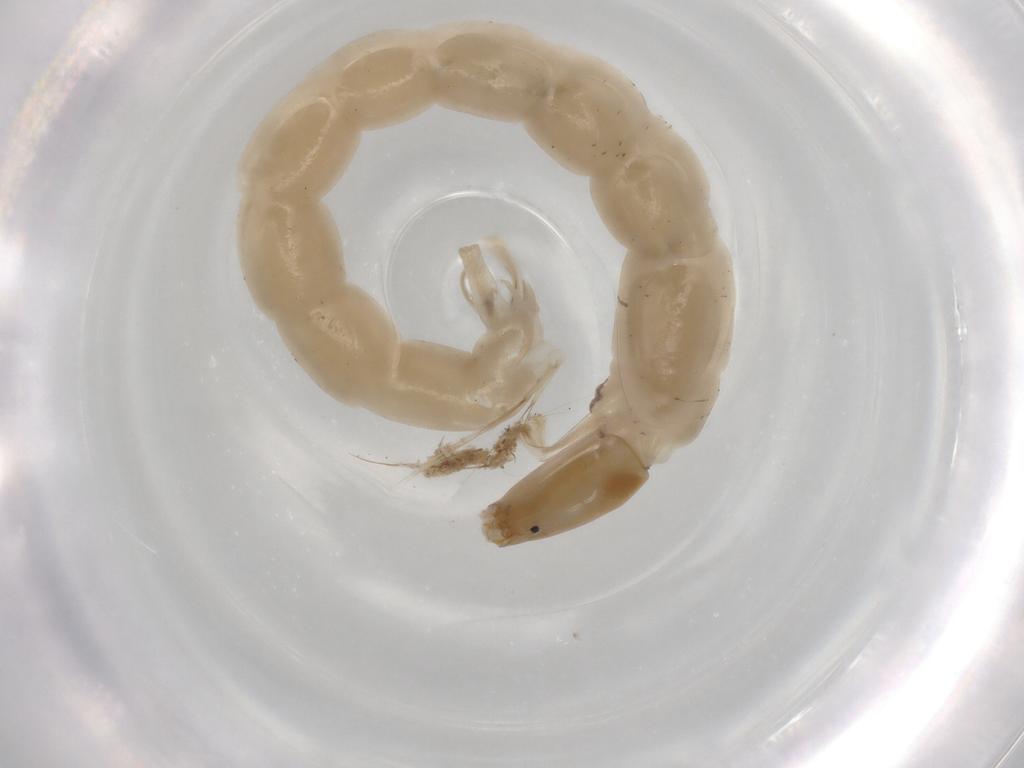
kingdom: Animalia
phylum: Arthropoda
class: Insecta
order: Diptera
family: Chironomidae
